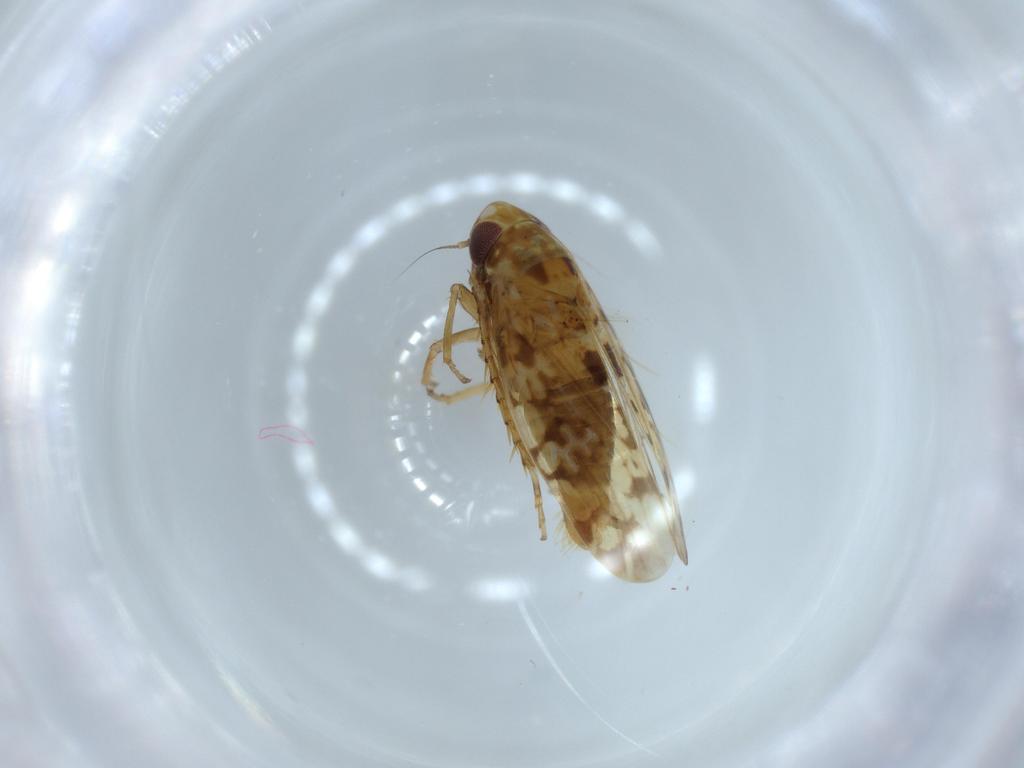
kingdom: Animalia
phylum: Arthropoda
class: Insecta
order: Hemiptera
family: Cicadellidae
